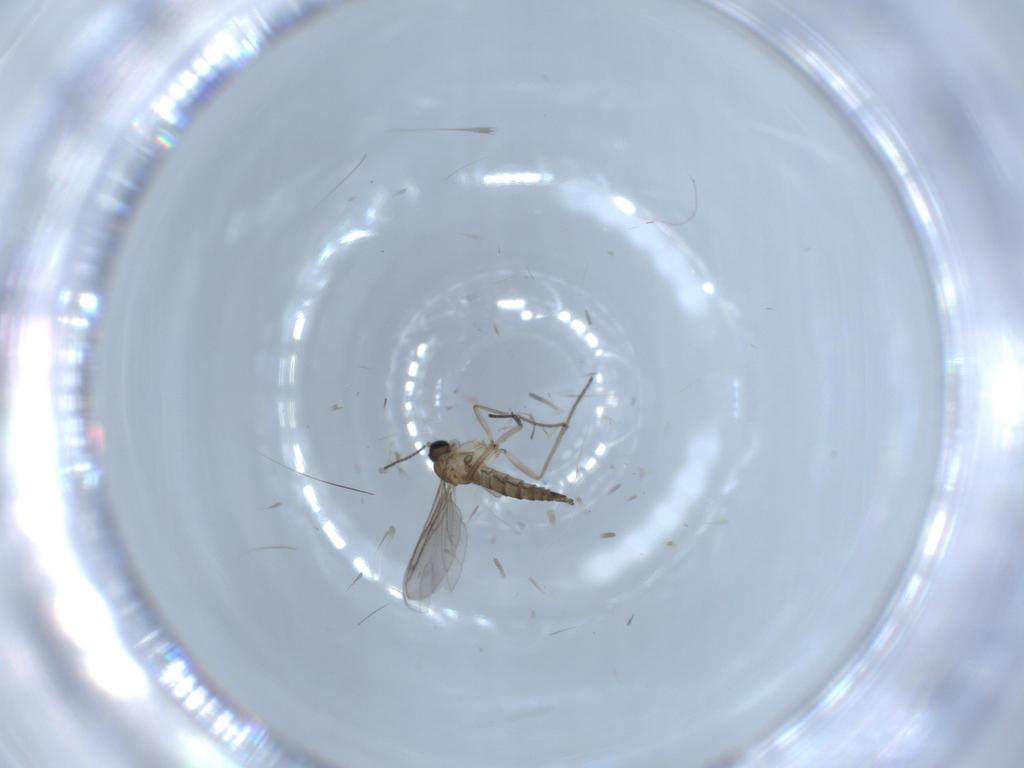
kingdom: Animalia
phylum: Arthropoda
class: Insecta
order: Diptera
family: Sciaridae
